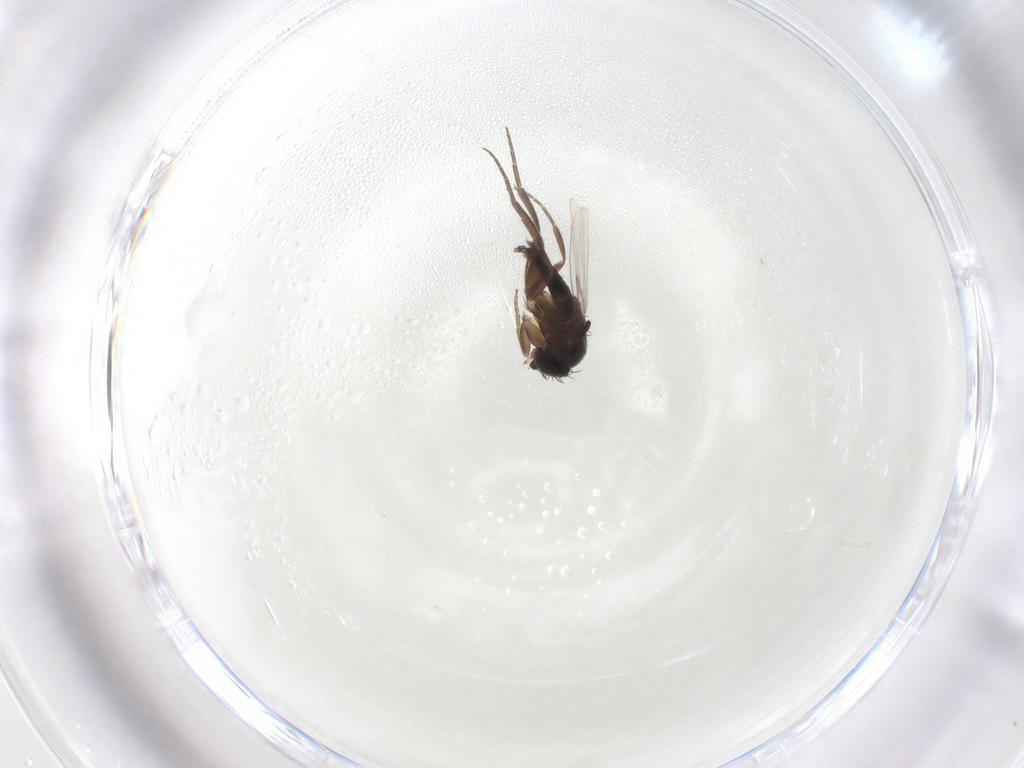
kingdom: Animalia
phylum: Arthropoda
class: Insecta
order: Diptera
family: Phoridae
